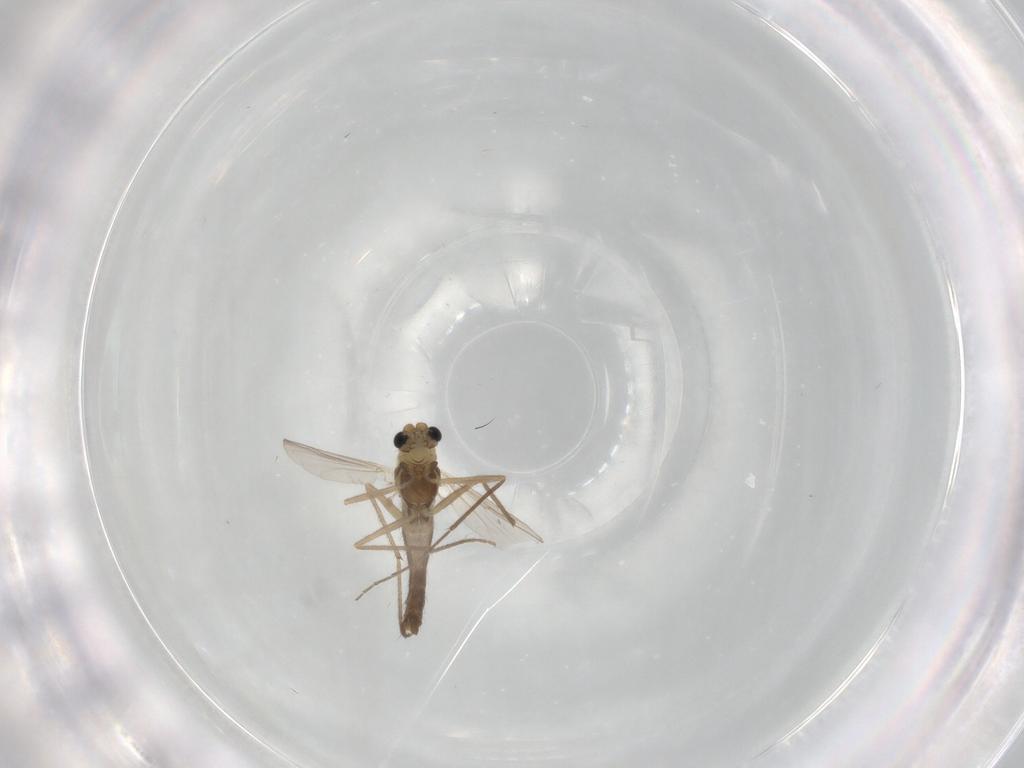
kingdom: Animalia
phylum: Arthropoda
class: Insecta
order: Diptera
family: Chironomidae
